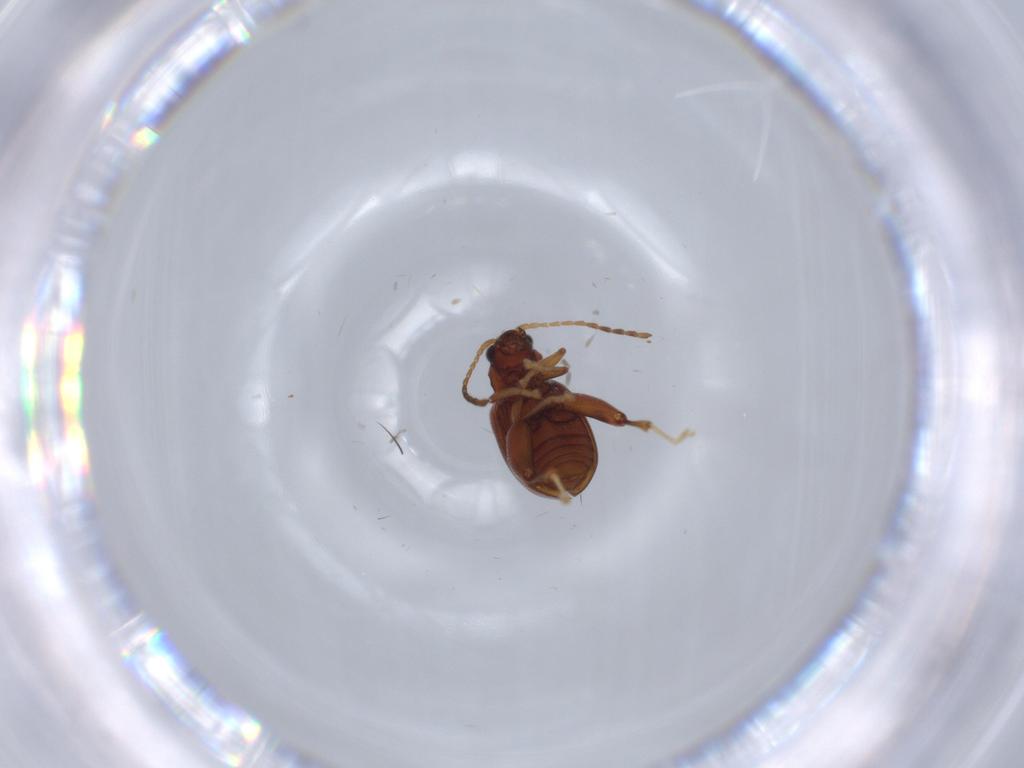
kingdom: Animalia
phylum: Arthropoda
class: Insecta
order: Coleoptera
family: Chrysomelidae
